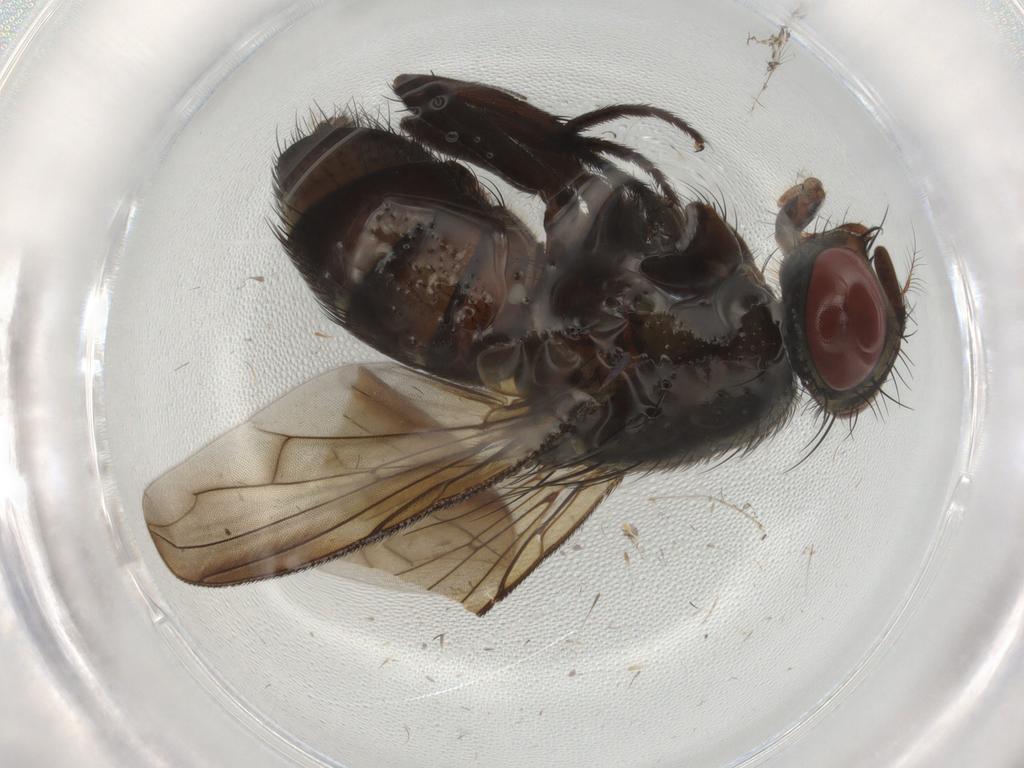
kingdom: Animalia
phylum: Arthropoda
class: Insecta
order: Diptera
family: Sarcophagidae
